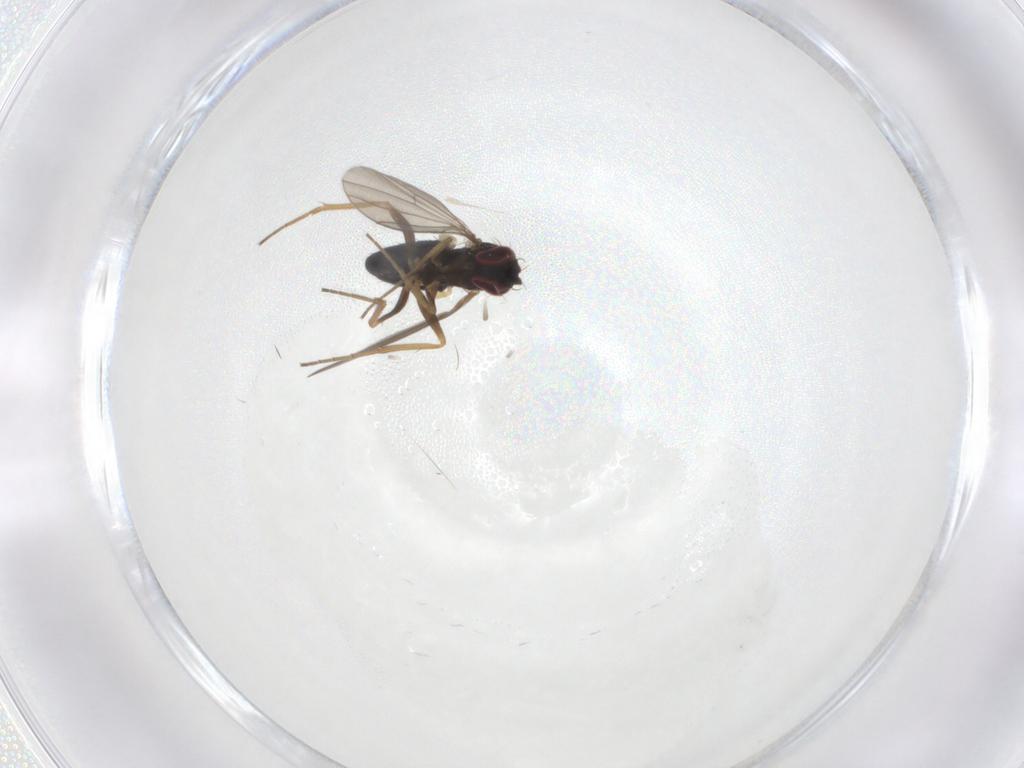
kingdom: Animalia
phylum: Arthropoda
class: Insecta
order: Diptera
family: Dolichopodidae
